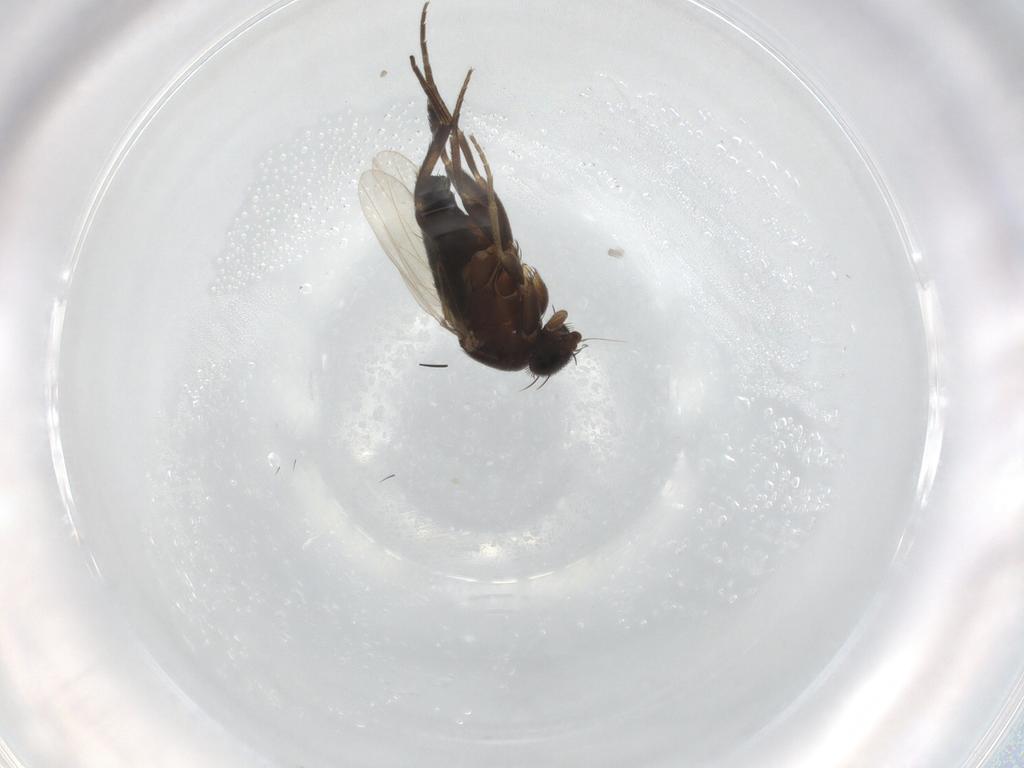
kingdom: Animalia
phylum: Arthropoda
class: Insecta
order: Diptera
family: Phoridae
